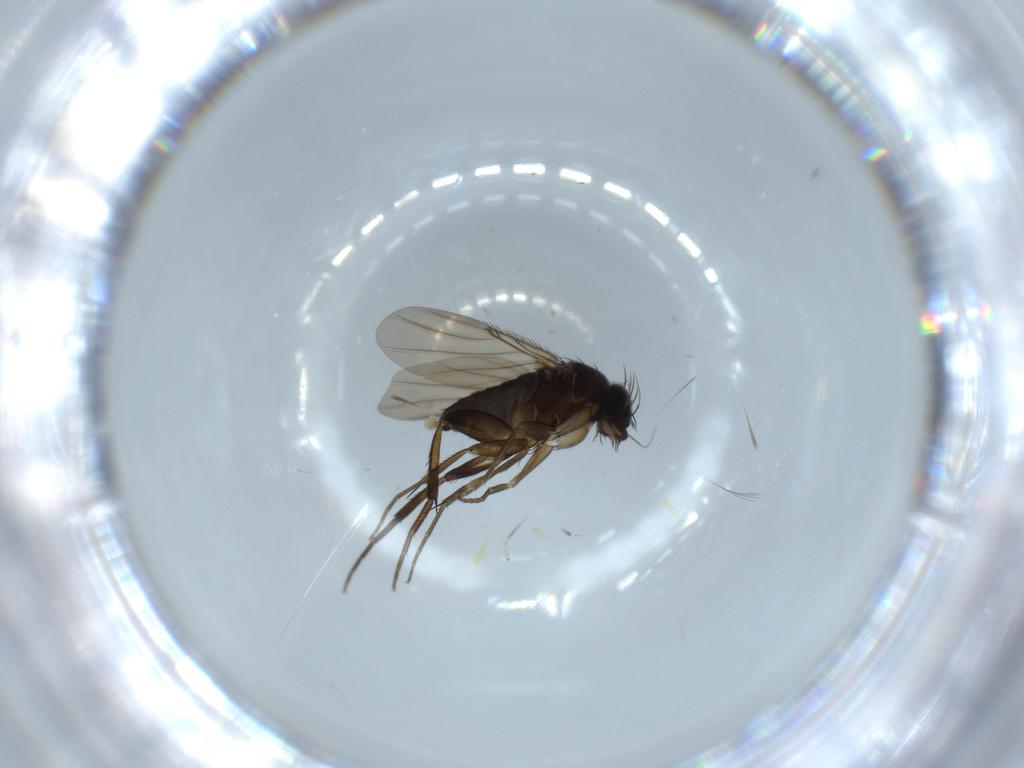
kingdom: Animalia
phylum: Arthropoda
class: Insecta
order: Diptera
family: Phoridae
